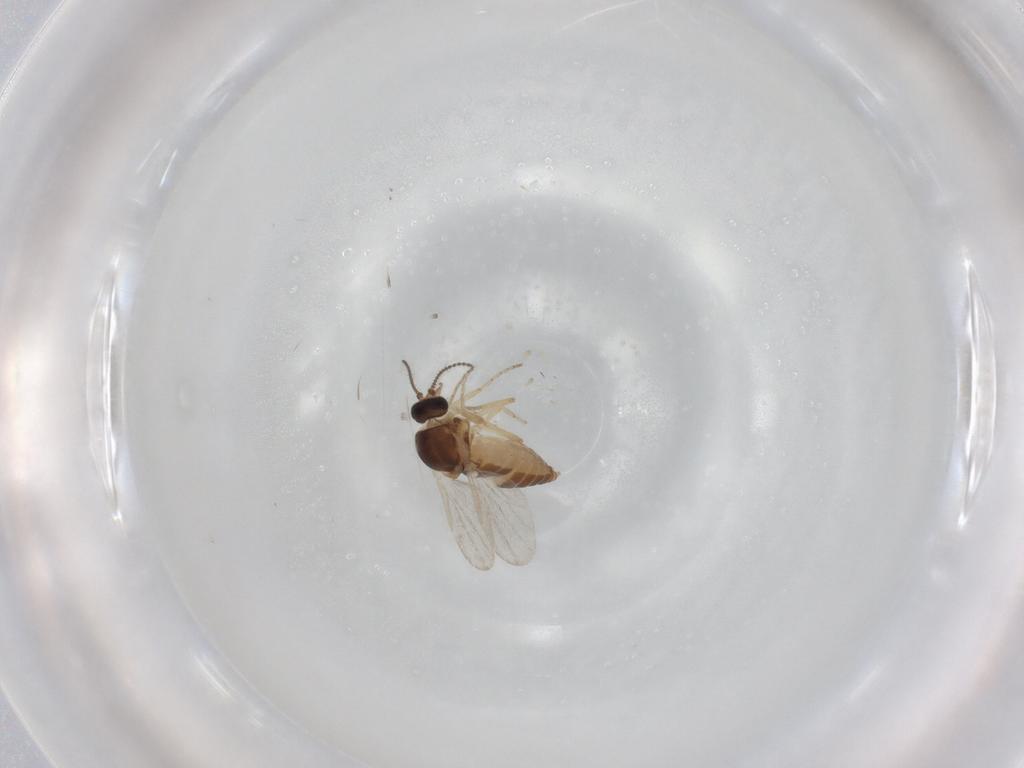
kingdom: Animalia
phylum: Arthropoda
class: Insecta
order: Diptera
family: Ceratopogonidae
